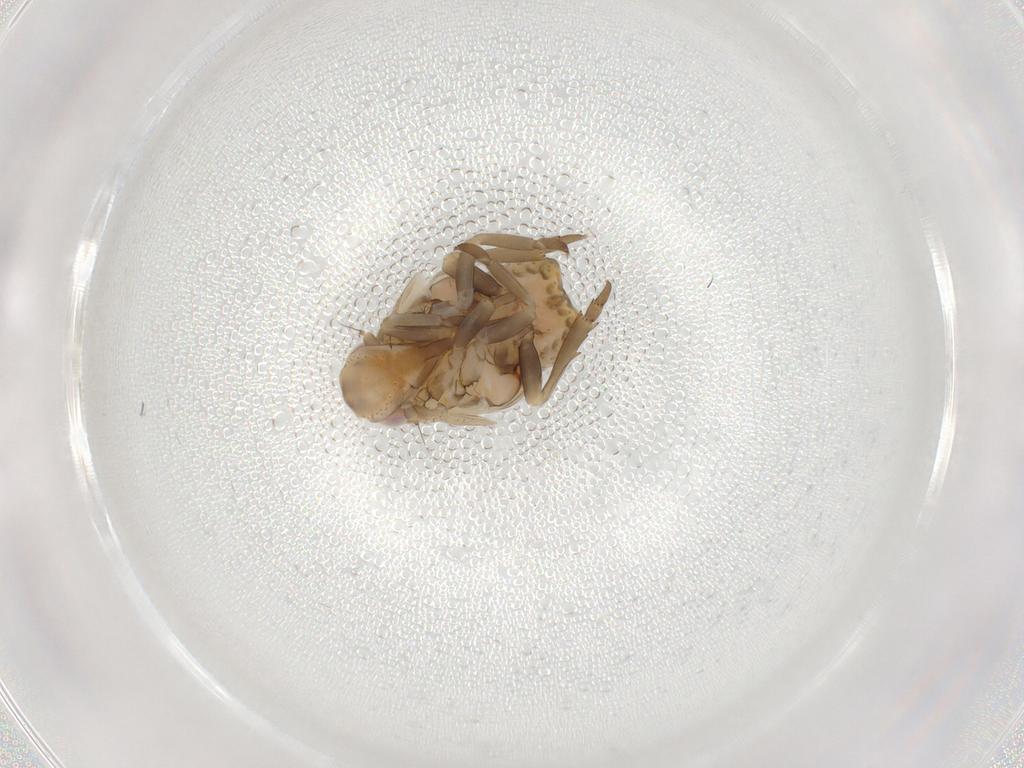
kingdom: Animalia
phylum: Arthropoda
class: Insecta
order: Hemiptera
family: Flatidae
